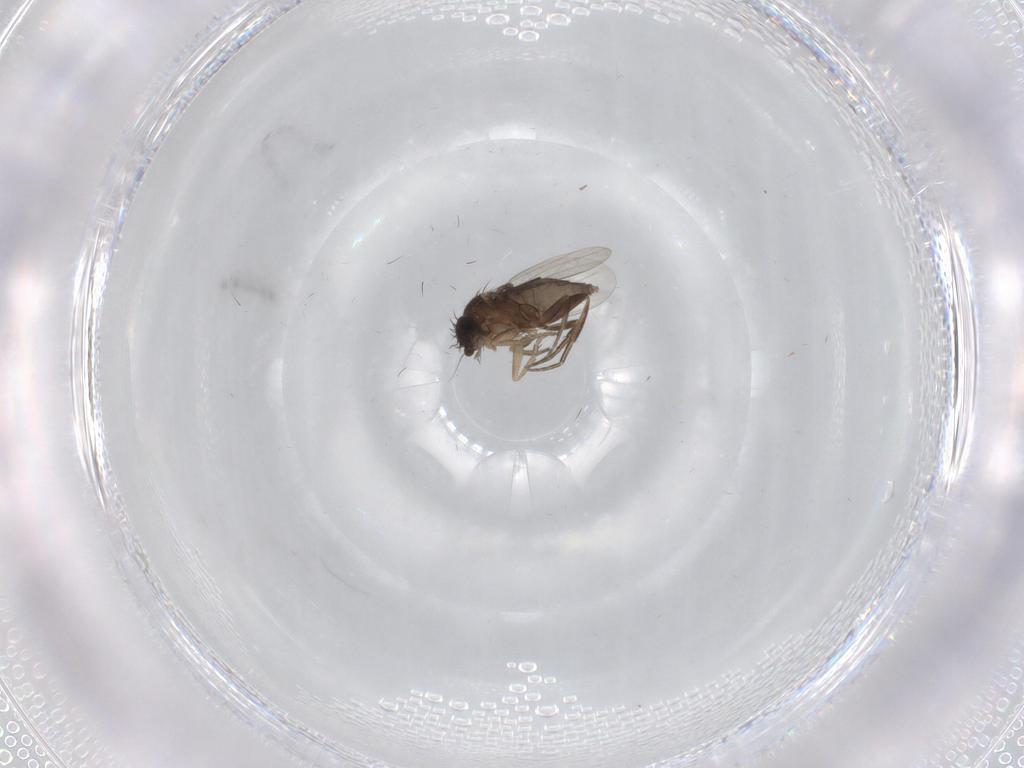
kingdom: Animalia
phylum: Arthropoda
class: Insecta
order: Diptera
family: Phoridae
